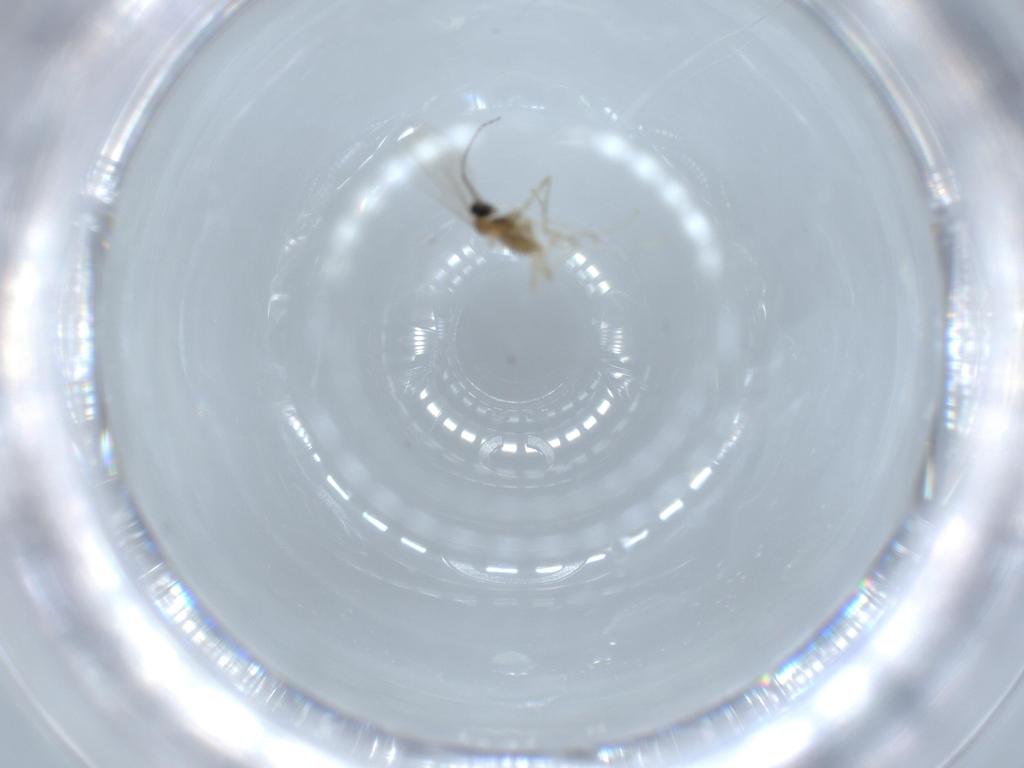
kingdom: Animalia
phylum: Arthropoda
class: Insecta
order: Diptera
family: Cecidomyiidae
